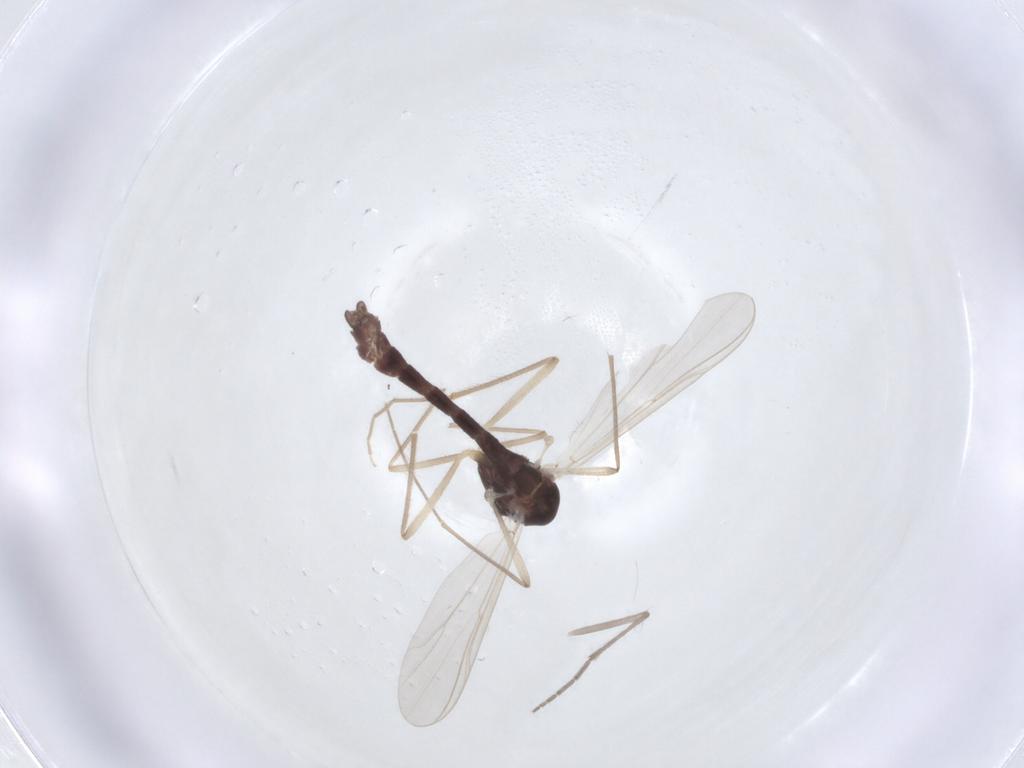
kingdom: Animalia
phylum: Arthropoda
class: Insecta
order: Diptera
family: Chironomidae
